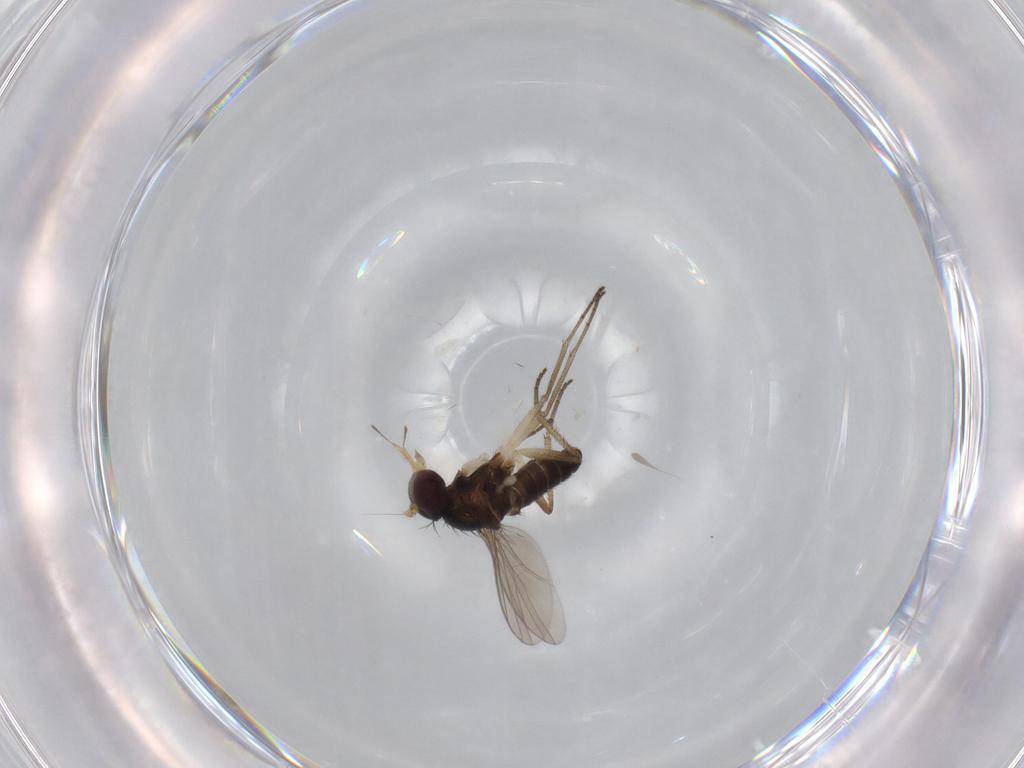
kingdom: Animalia
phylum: Arthropoda
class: Insecta
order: Diptera
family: Dolichopodidae
